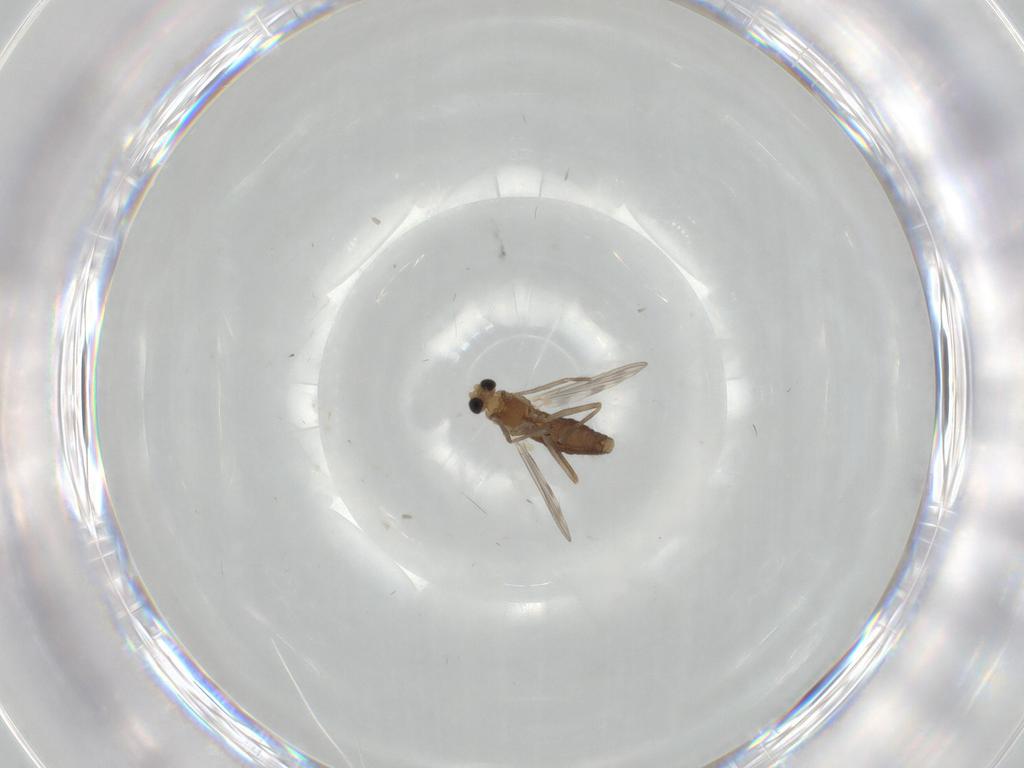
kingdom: Animalia
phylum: Arthropoda
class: Insecta
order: Diptera
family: Chironomidae
